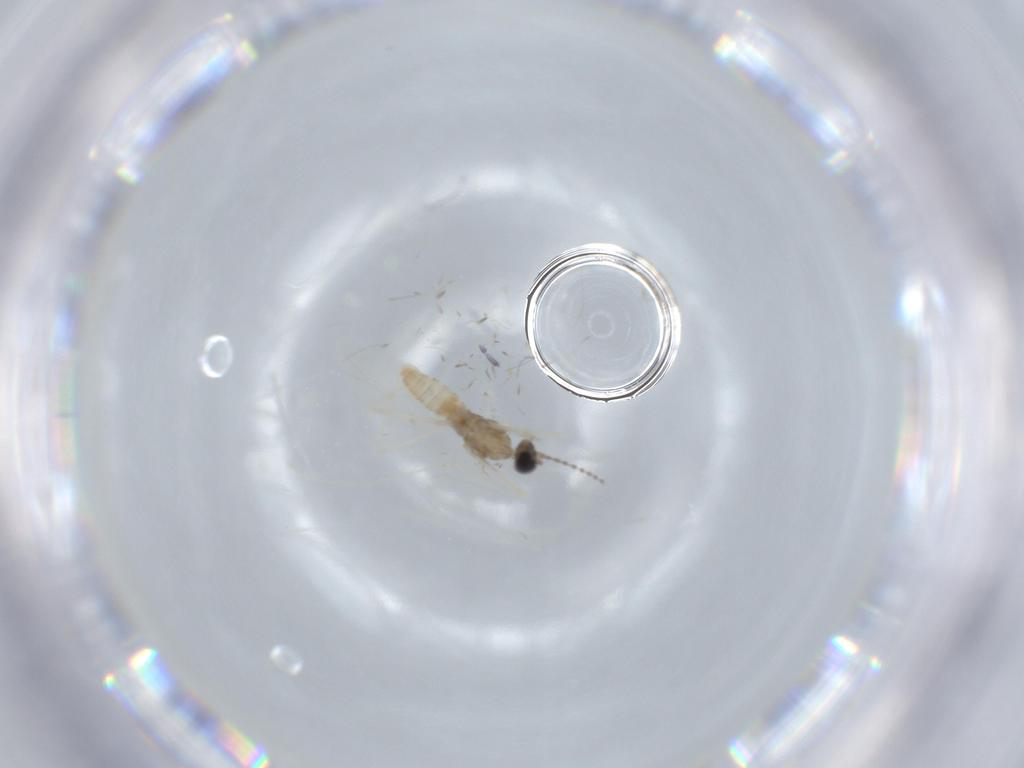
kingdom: Animalia
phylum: Arthropoda
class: Insecta
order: Diptera
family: Cecidomyiidae
